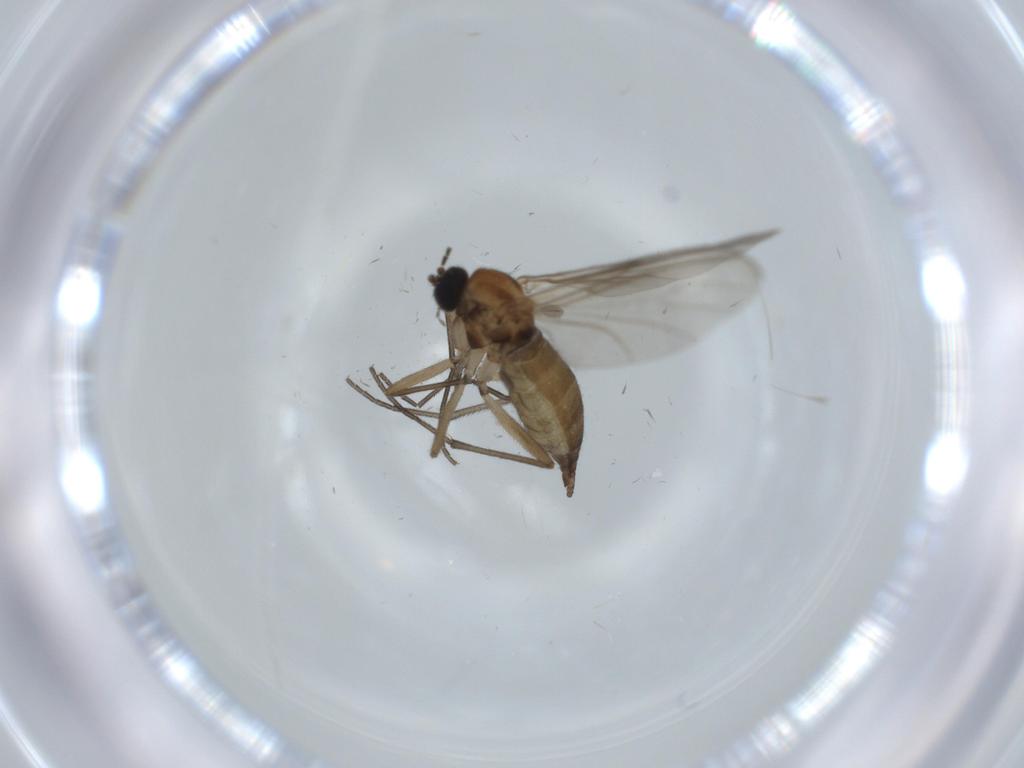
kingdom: Animalia
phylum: Arthropoda
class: Insecta
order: Diptera
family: Sciaridae
